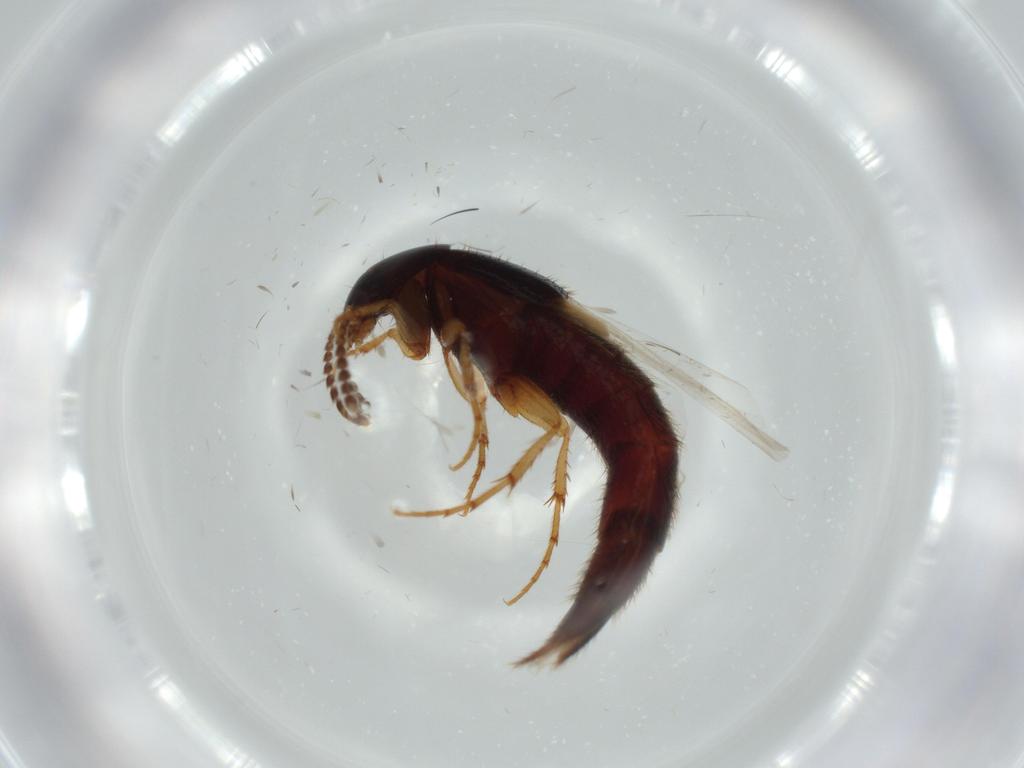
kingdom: Animalia
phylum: Arthropoda
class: Insecta
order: Coleoptera
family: Staphylinidae
